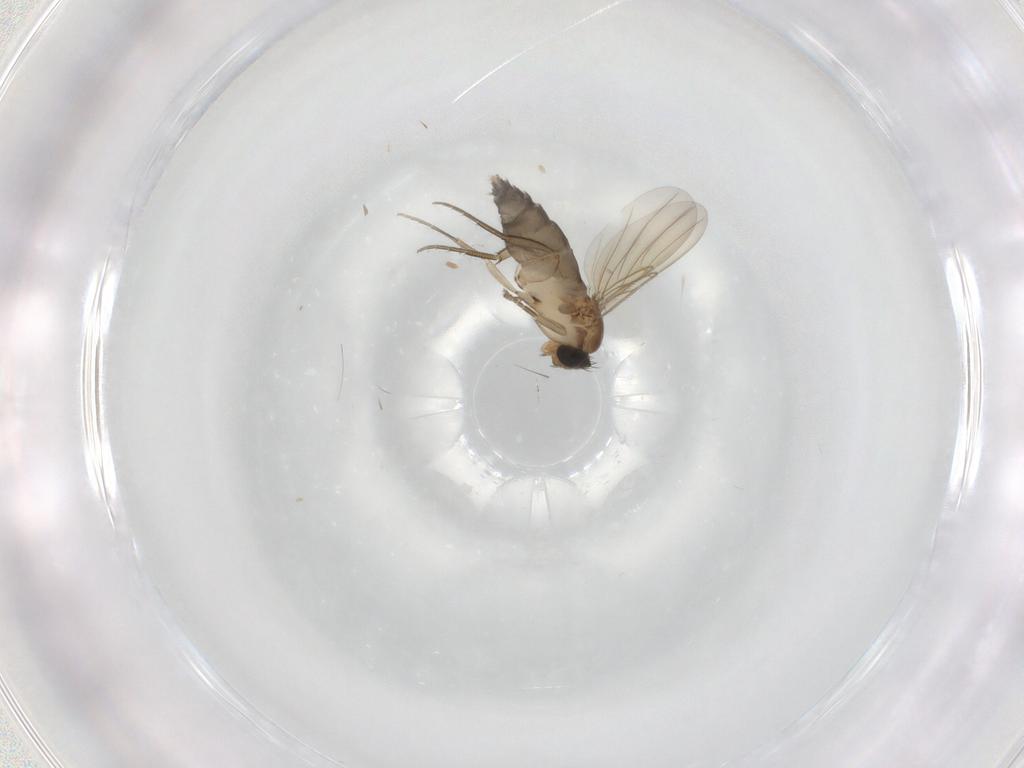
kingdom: Animalia
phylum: Arthropoda
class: Insecta
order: Diptera
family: Phoridae
